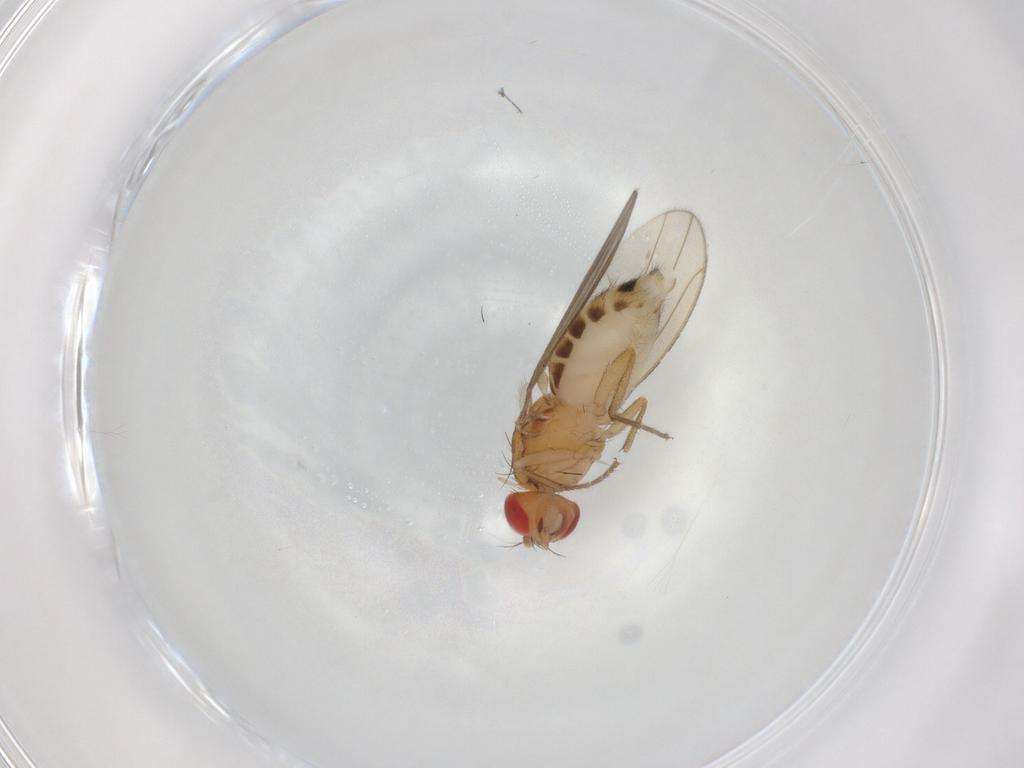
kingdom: Animalia
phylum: Arthropoda
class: Insecta
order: Diptera
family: Drosophilidae
